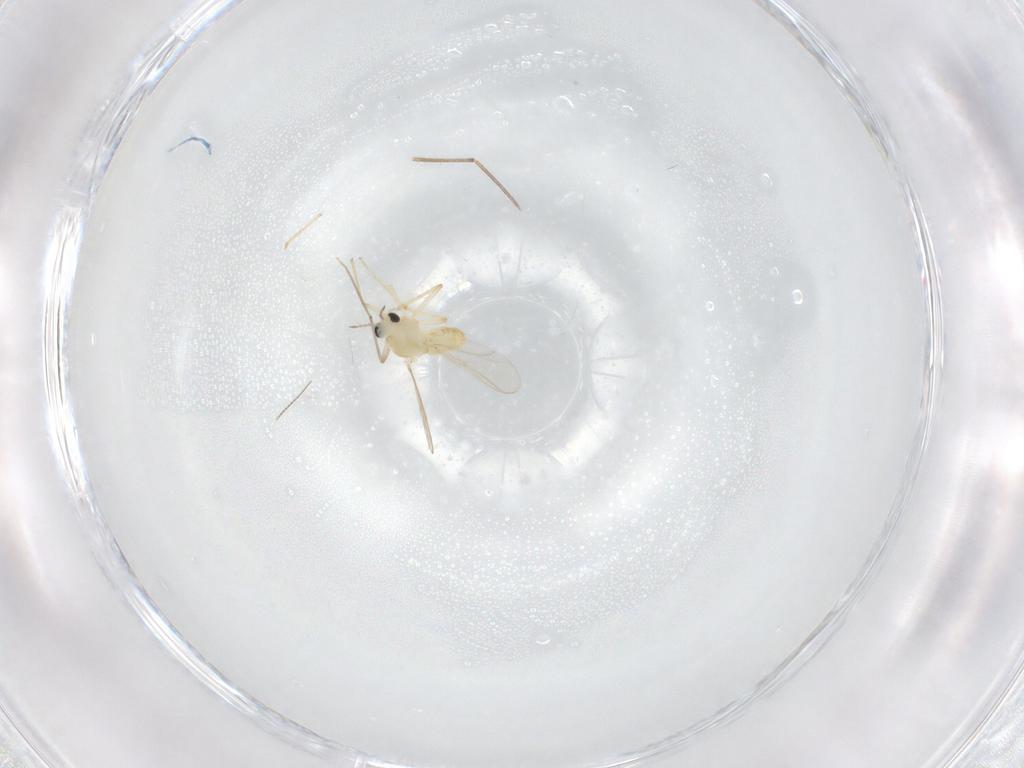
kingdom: Animalia
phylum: Arthropoda
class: Insecta
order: Diptera
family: Chironomidae
